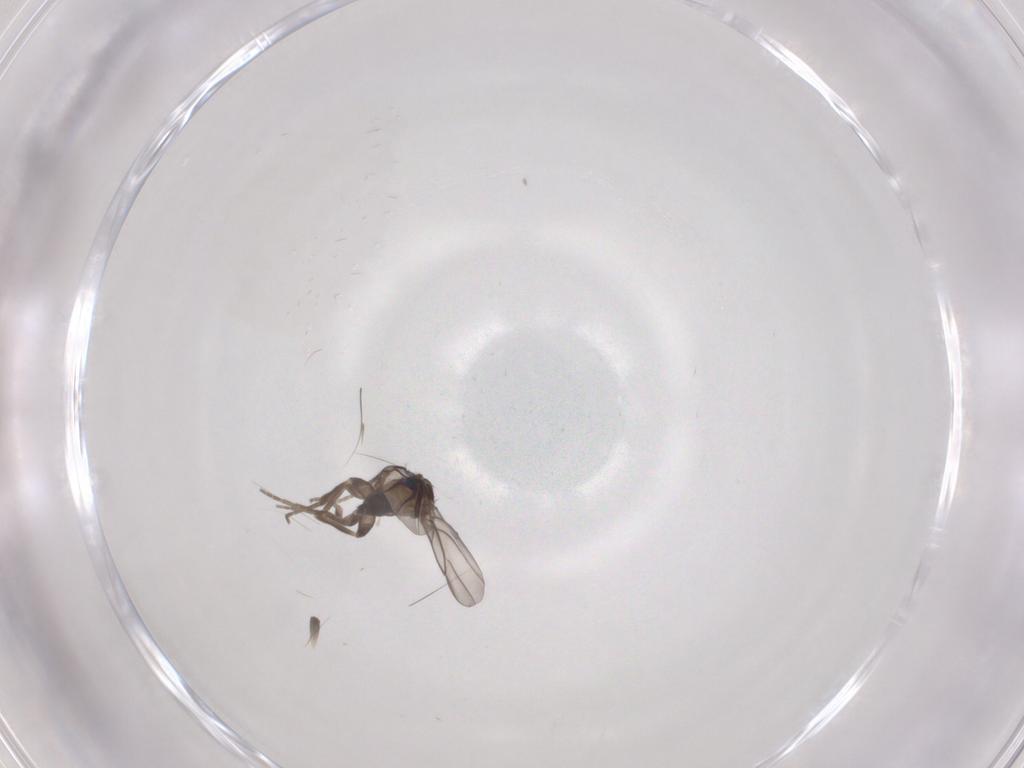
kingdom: Animalia
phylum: Arthropoda
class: Insecta
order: Diptera
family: Phoridae
